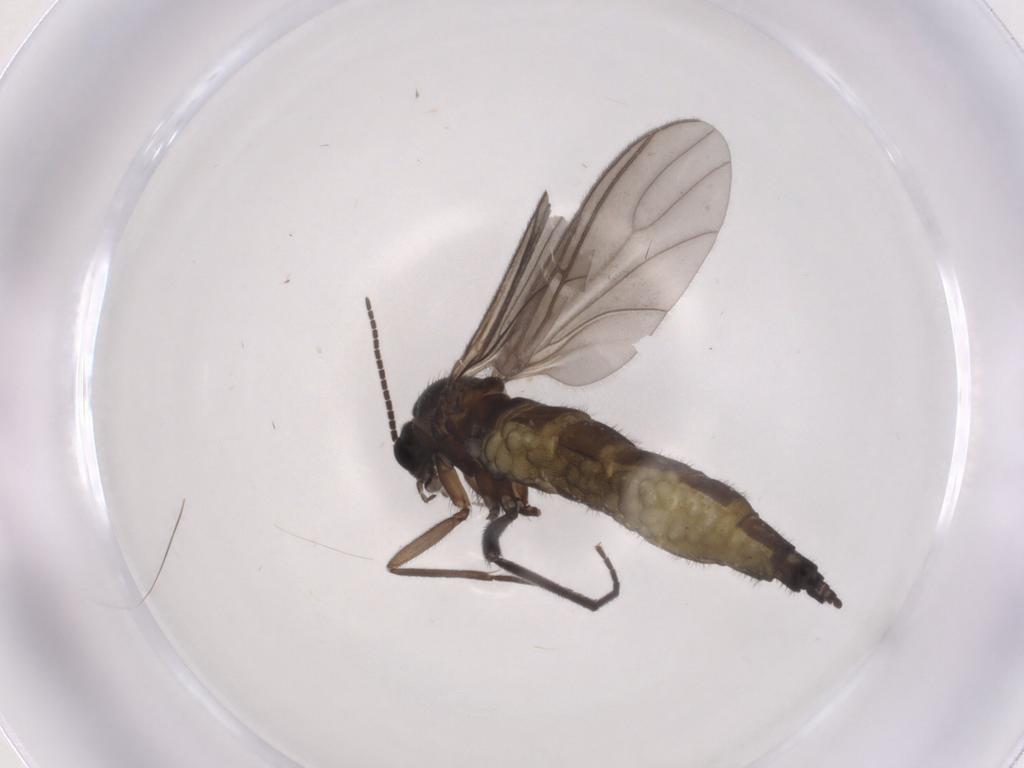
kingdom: Animalia
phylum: Arthropoda
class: Insecta
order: Diptera
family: Sciaridae
